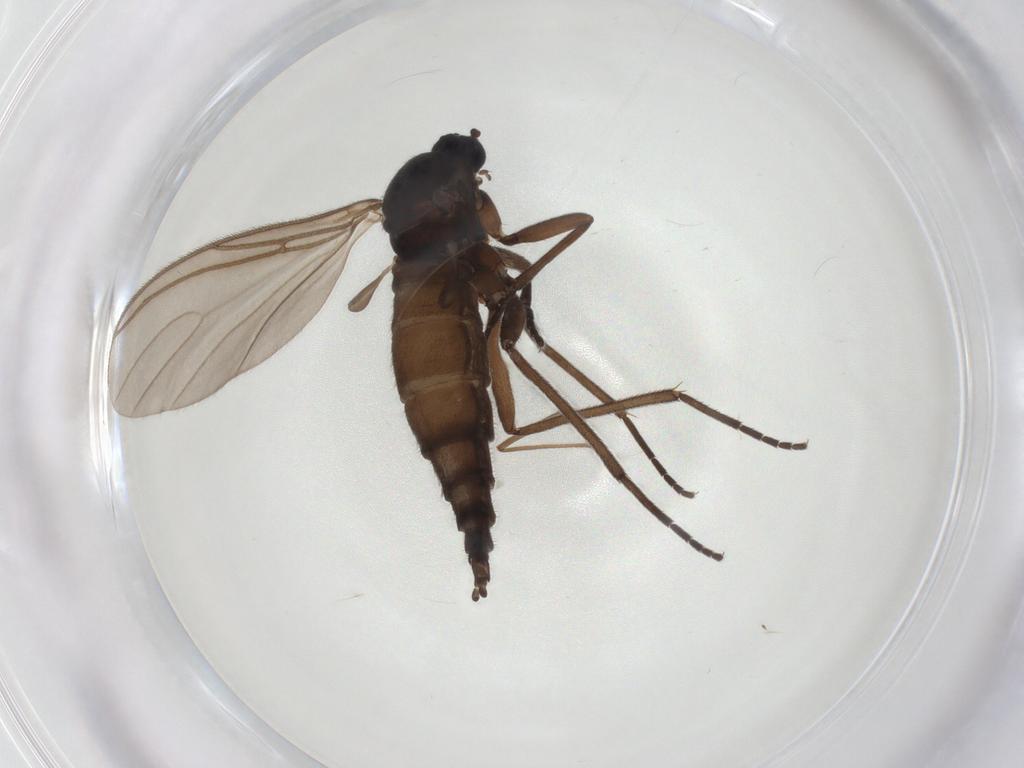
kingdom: Animalia
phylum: Arthropoda
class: Insecta
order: Diptera
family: Sciaridae
